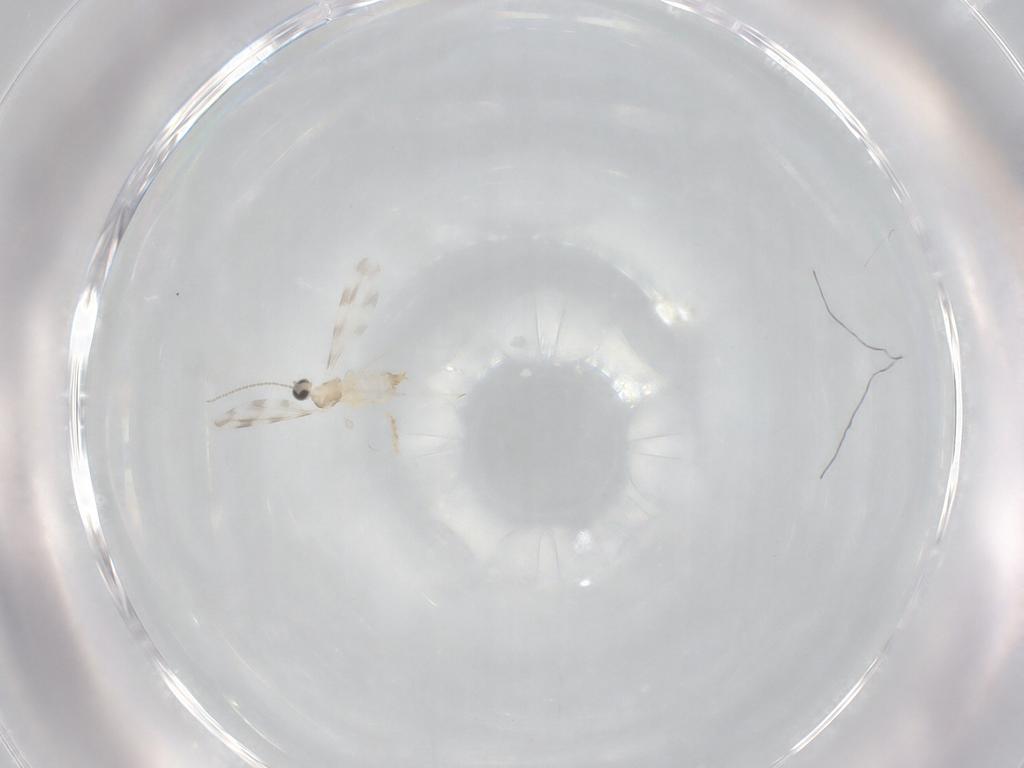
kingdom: Animalia
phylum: Arthropoda
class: Insecta
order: Diptera
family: Cecidomyiidae
